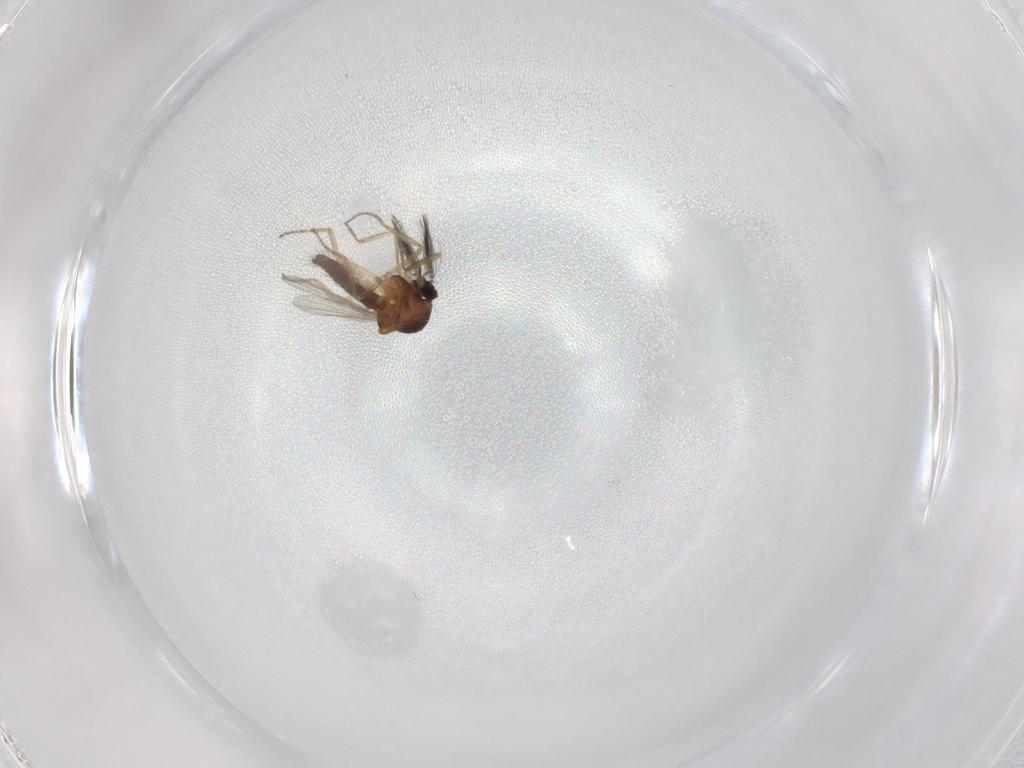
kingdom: Animalia
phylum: Arthropoda
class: Insecta
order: Diptera
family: Ceratopogonidae
